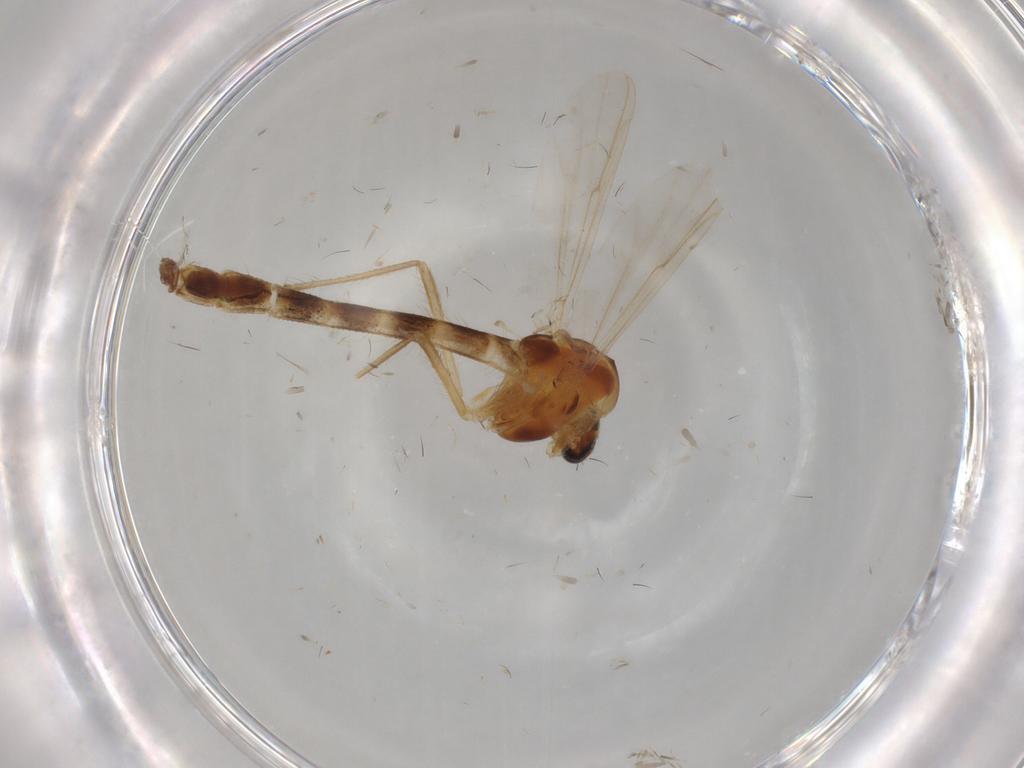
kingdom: Animalia
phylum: Arthropoda
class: Insecta
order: Diptera
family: Chironomidae
